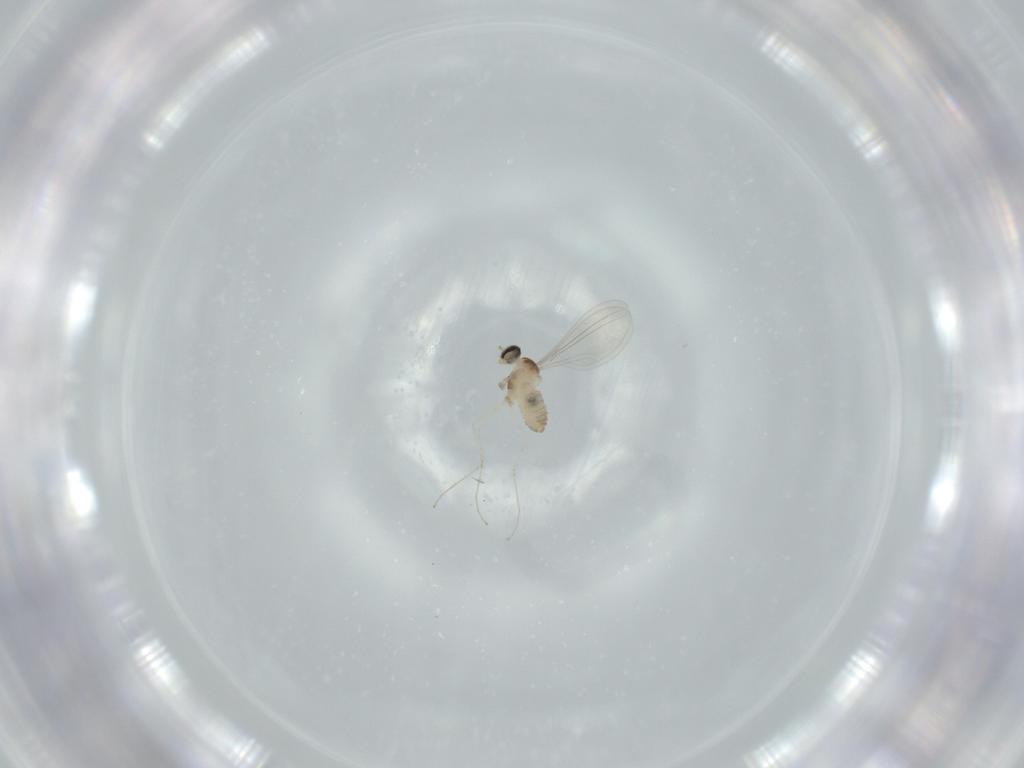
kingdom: Animalia
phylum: Arthropoda
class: Insecta
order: Diptera
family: Cecidomyiidae
